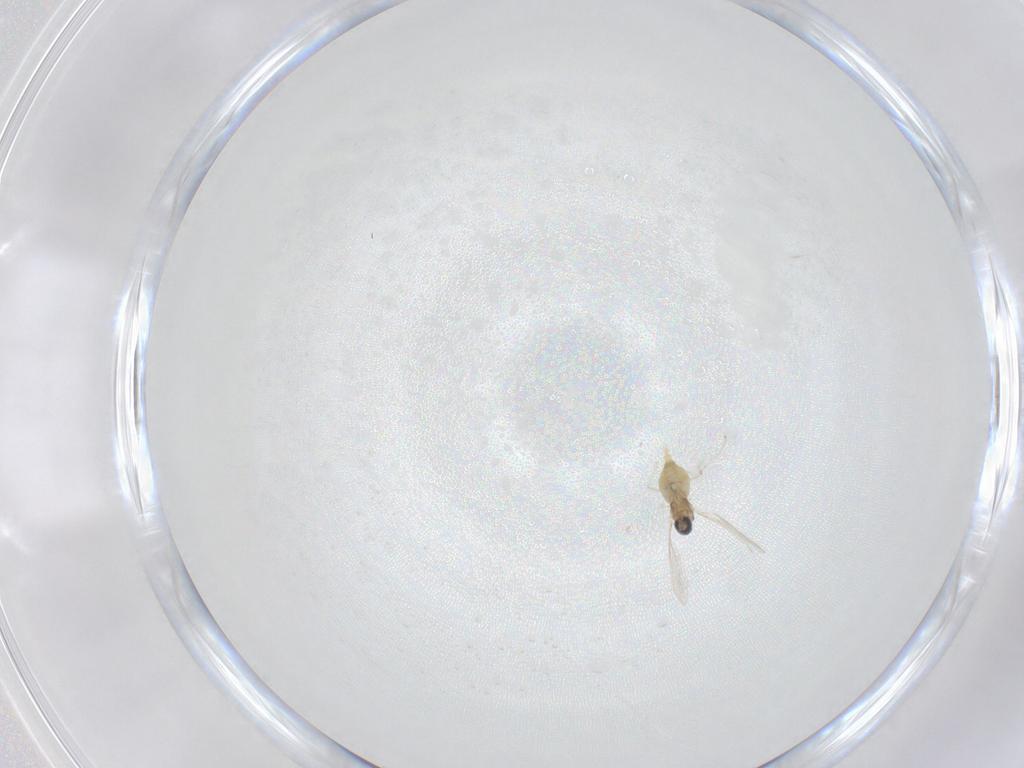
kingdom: Animalia
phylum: Arthropoda
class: Insecta
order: Diptera
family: Cecidomyiidae
